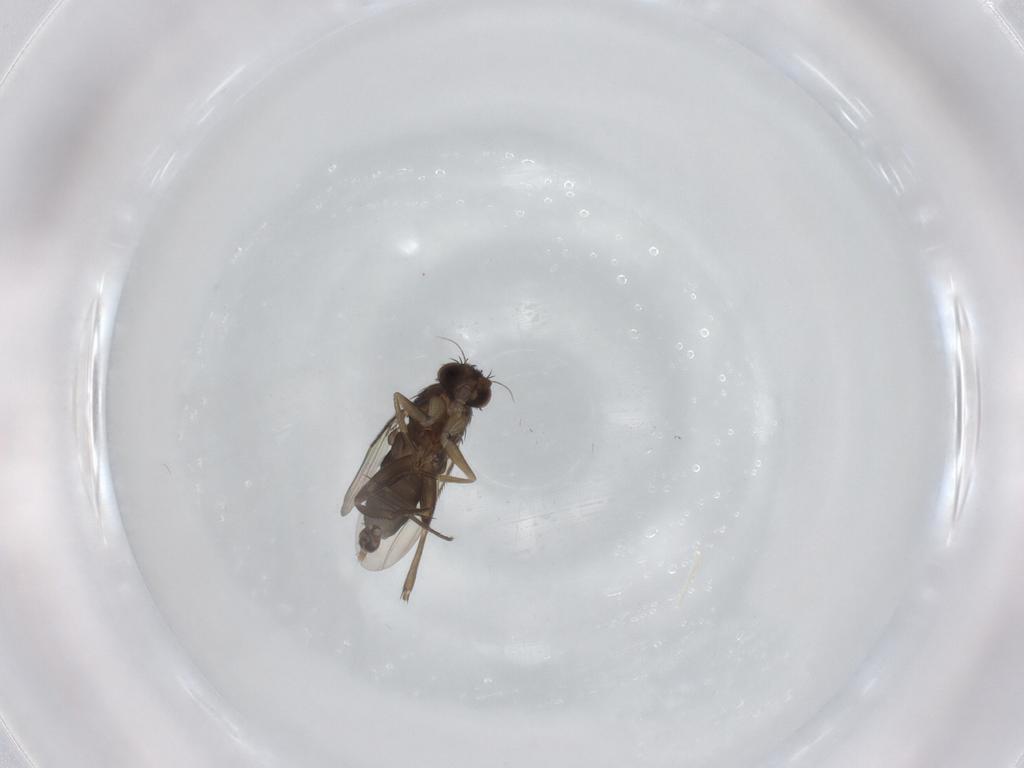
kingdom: Animalia
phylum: Arthropoda
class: Insecta
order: Diptera
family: Phoridae
